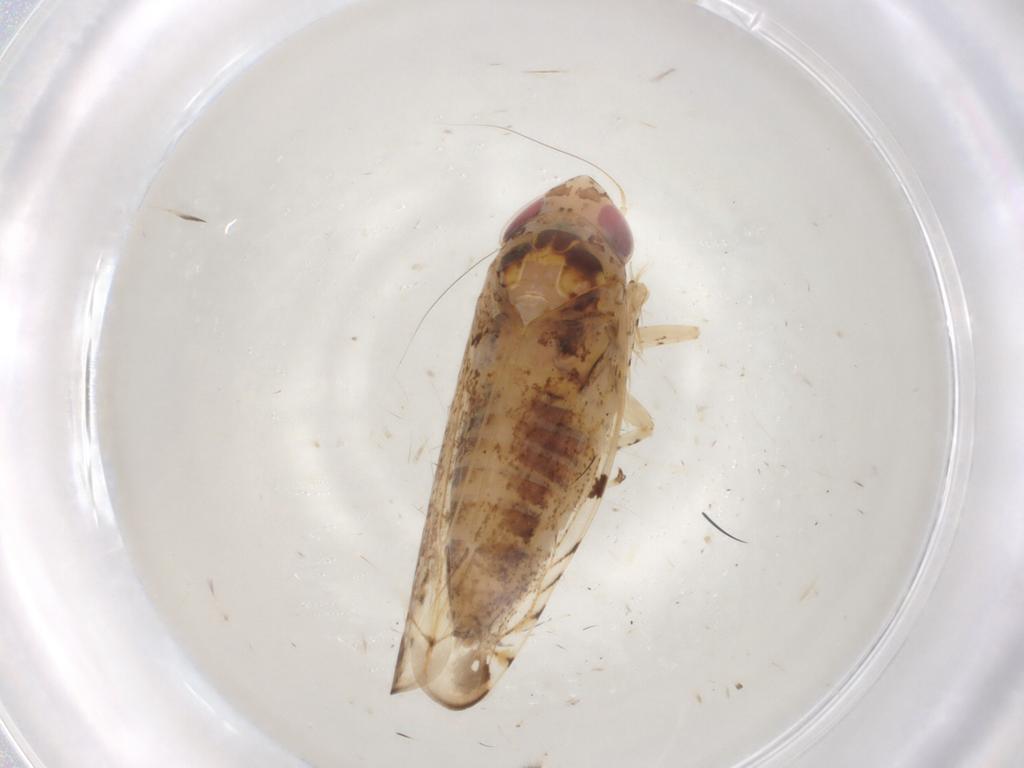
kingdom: Animalia
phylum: Arthropoda
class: Insecta
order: Hemiptera
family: Cicadellidae
